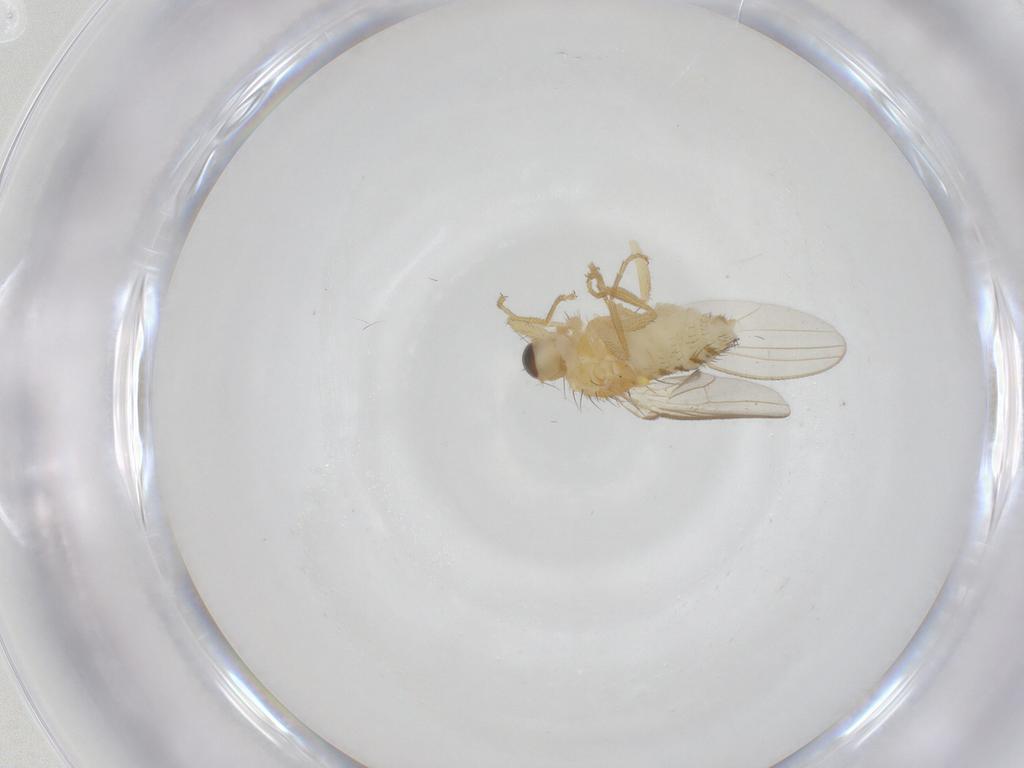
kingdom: Animalia
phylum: Arthropoda
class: Insecta
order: Diptera
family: Chyromyidae
